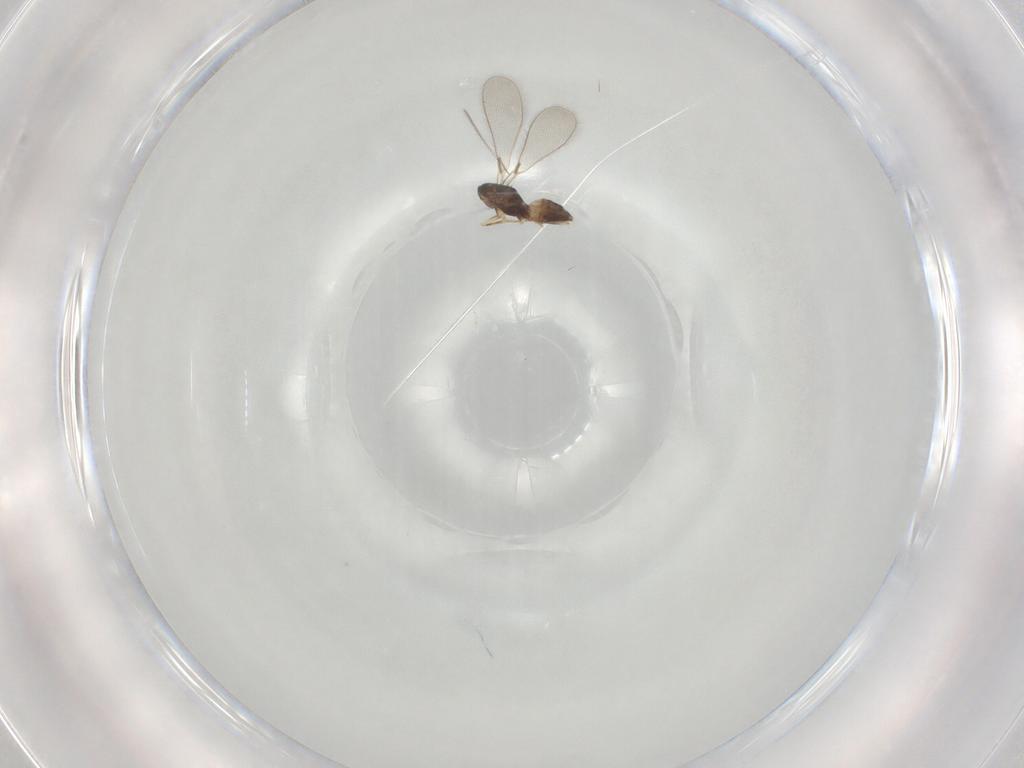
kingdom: Animalia
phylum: Arthropoda
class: Insecta
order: Hymenoptera
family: Mymaridae
